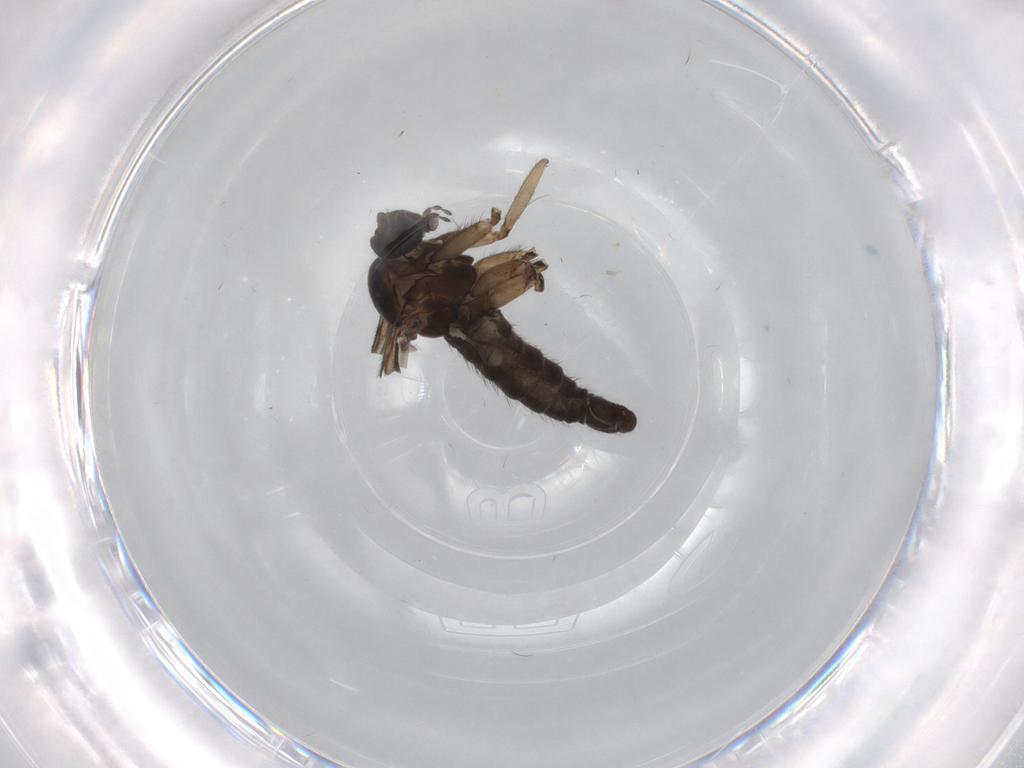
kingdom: Animalia
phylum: Arthropoda
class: Insecta
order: Diptera
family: Sciaridae
